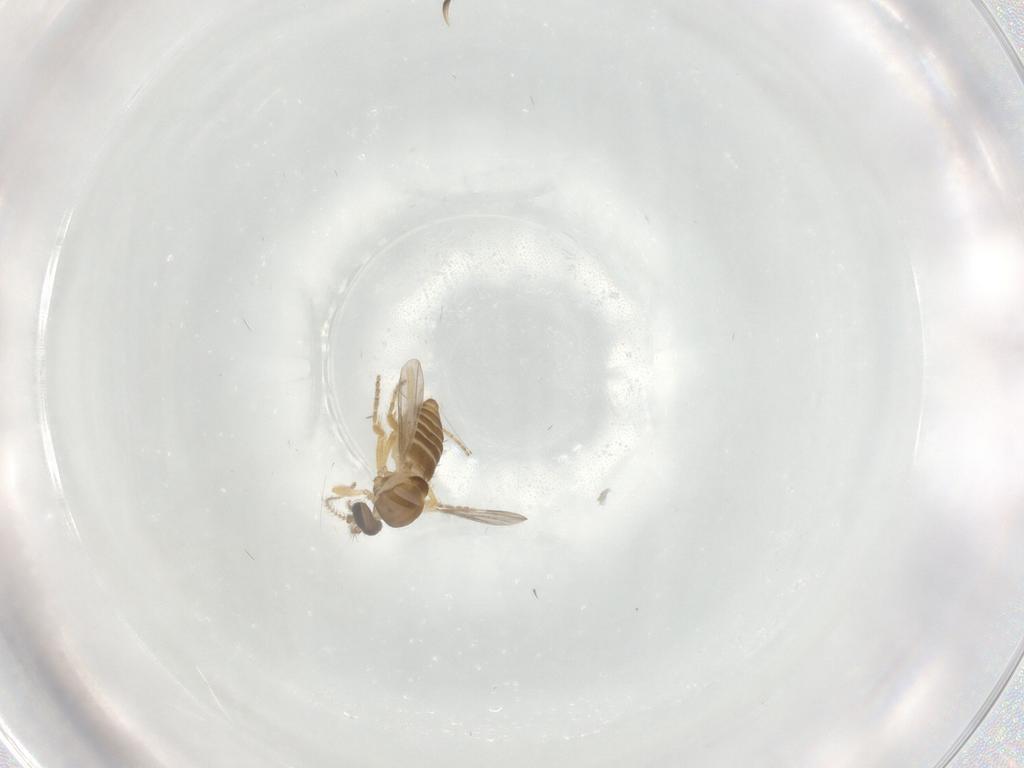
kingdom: Animalia
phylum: Arthropoda
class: Insecta
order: Diptera
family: Ceratopogonidae
